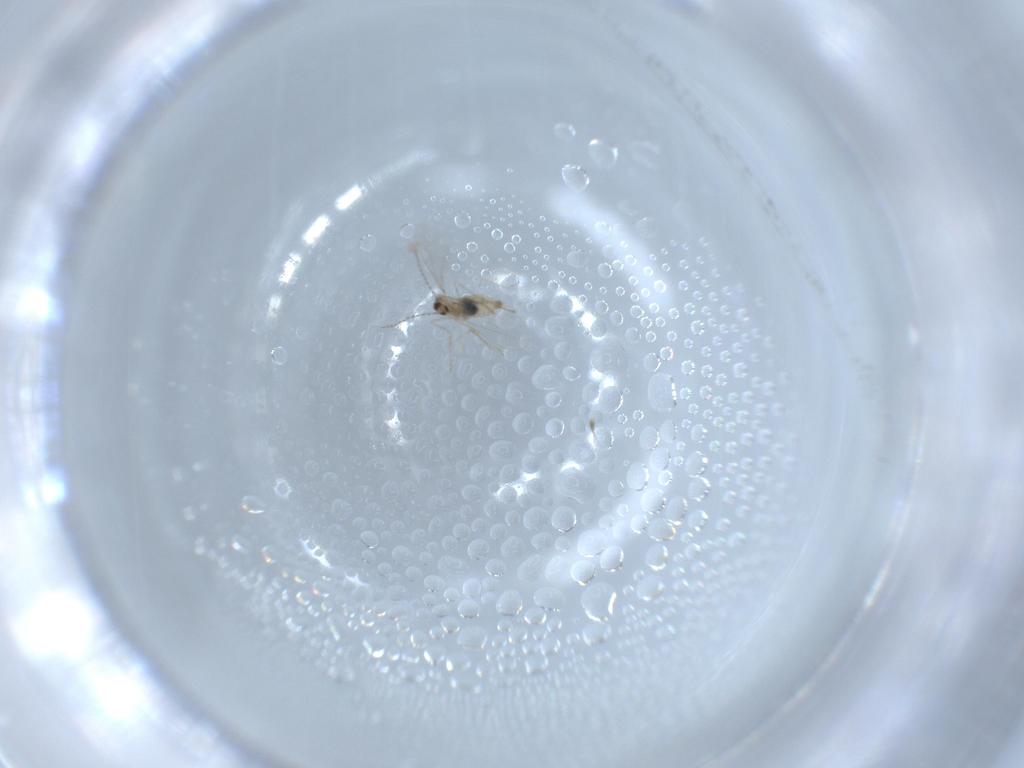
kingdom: Animalia
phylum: Arthropoda
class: Insecta
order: Diptera
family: Cecidomyiidae
